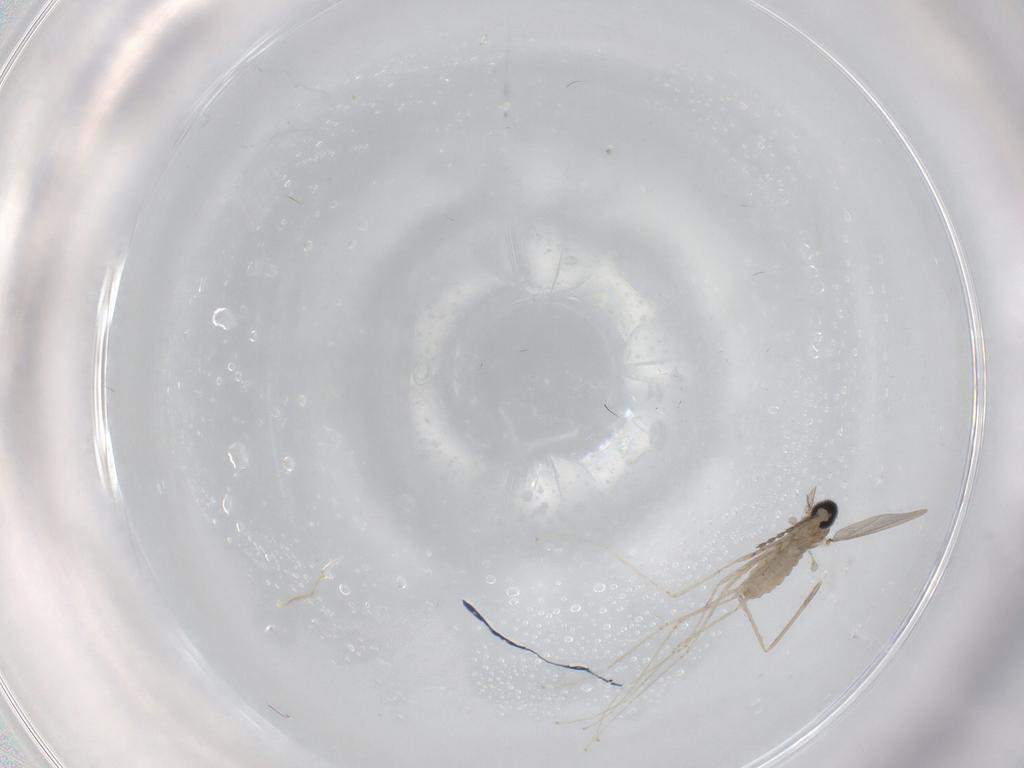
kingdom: Animalia
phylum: Arthropoda
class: Insecta
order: Diptera
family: Cecidomyiidae
